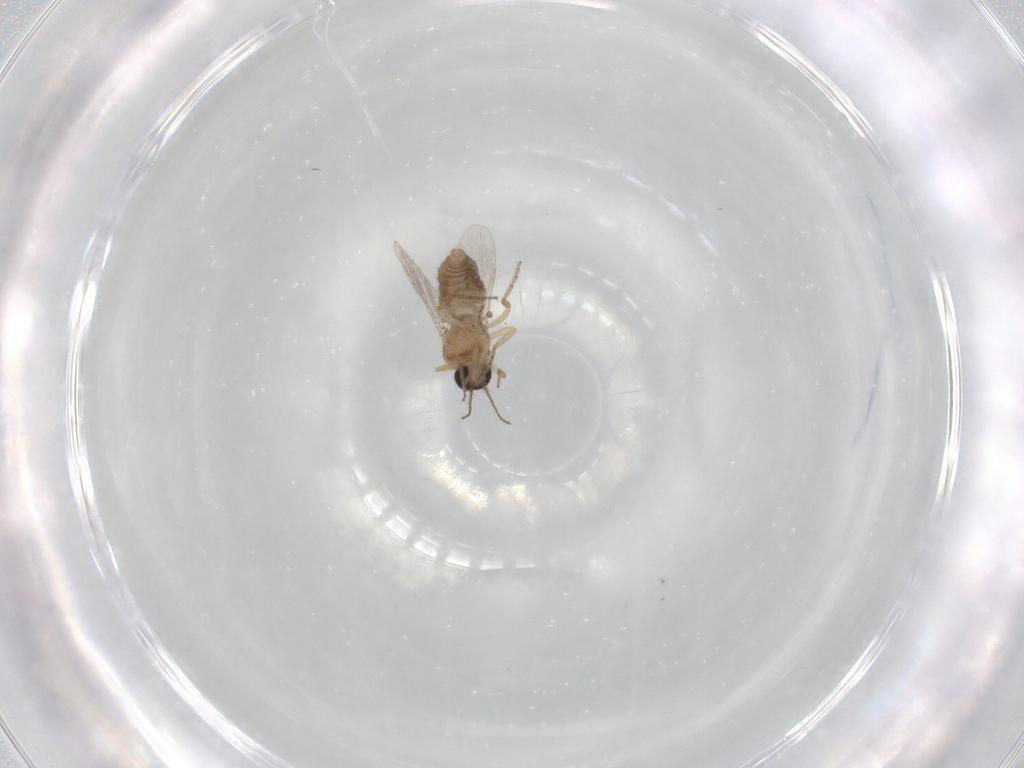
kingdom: Animalia
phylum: Arthropoda
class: Insecta
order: Diptera
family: Ceratopogonidae
